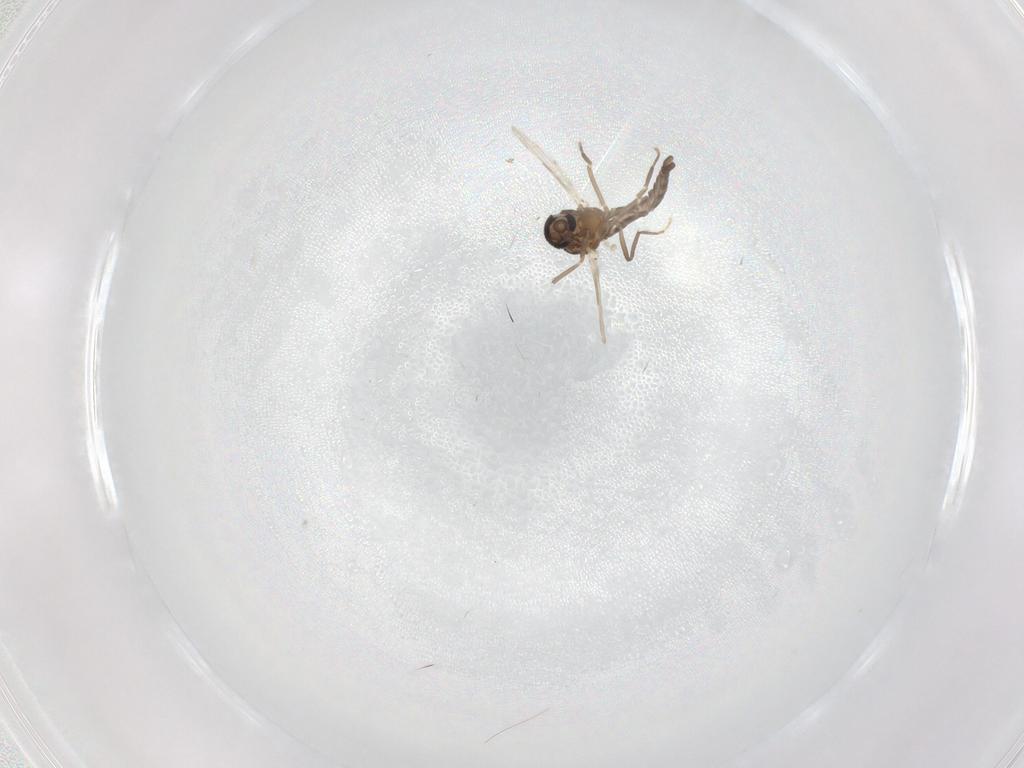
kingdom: Animalia
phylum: Arthropoda
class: Insecta
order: Diptera
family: Ceratopogonidae
